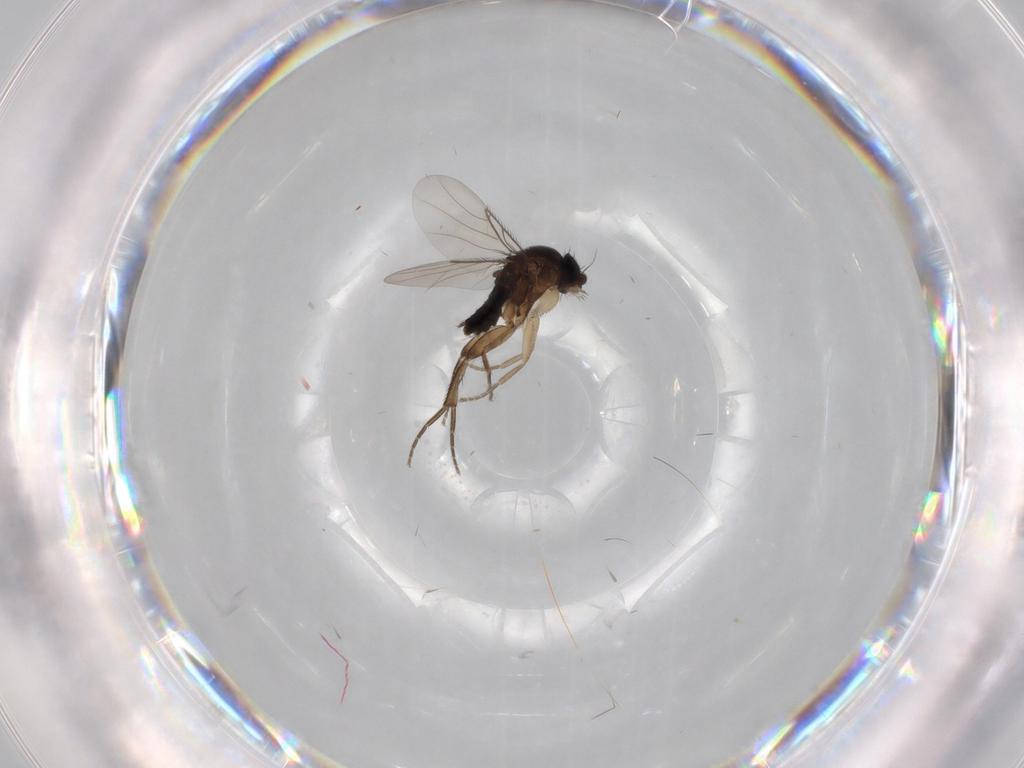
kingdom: Animalia
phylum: Arthropoda
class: Insecta
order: Diptera
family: Phoridae
